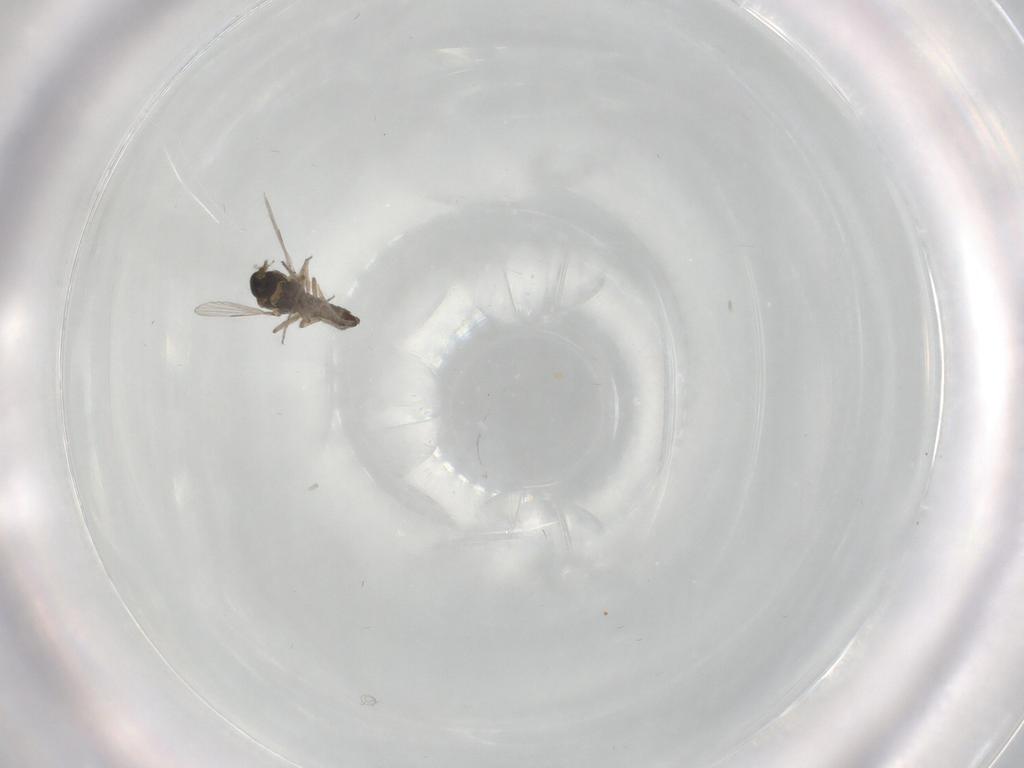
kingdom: Animalia
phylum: Arthropoda
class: Insecta
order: Diptera
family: Ceratopogonidae
